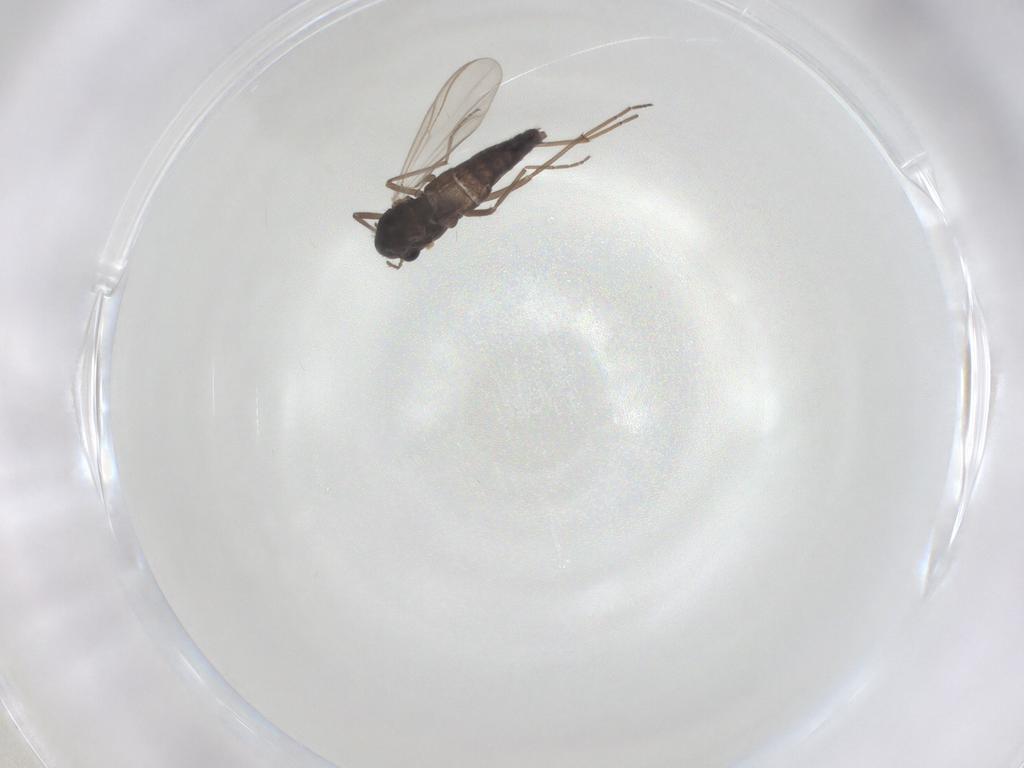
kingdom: Animalia
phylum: Arthropoda
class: Insecta
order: Diptera
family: Chironomidae
